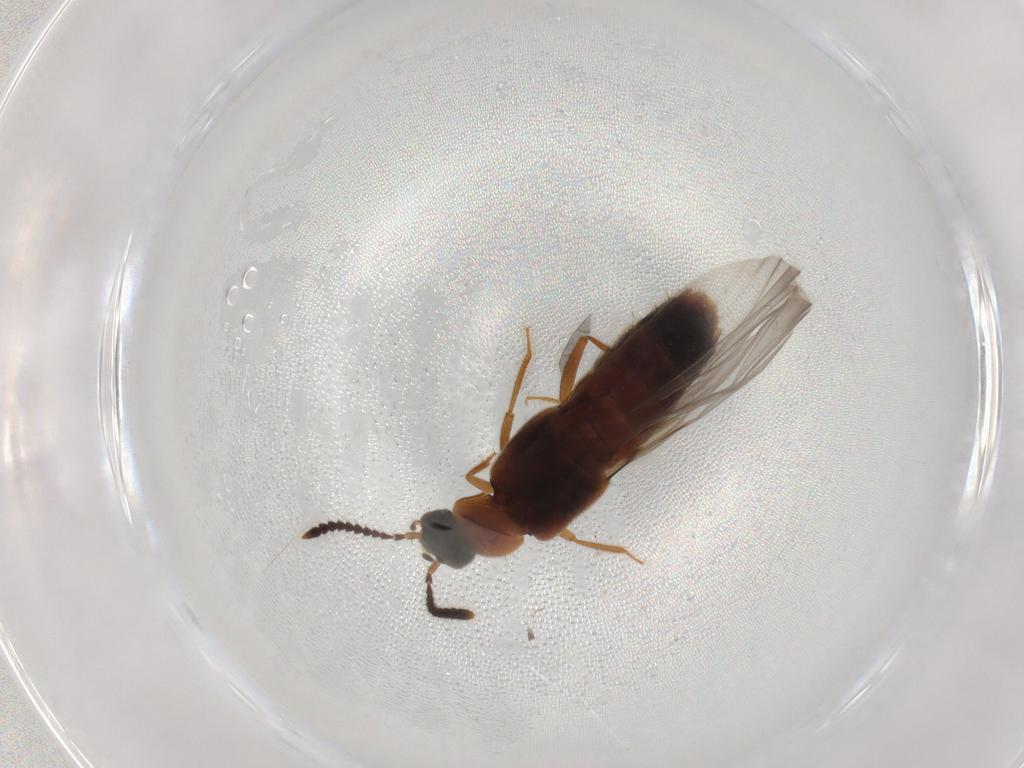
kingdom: Animalia
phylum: Arthropoda
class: Insecta
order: Coleoptera
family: Staphylinidae
